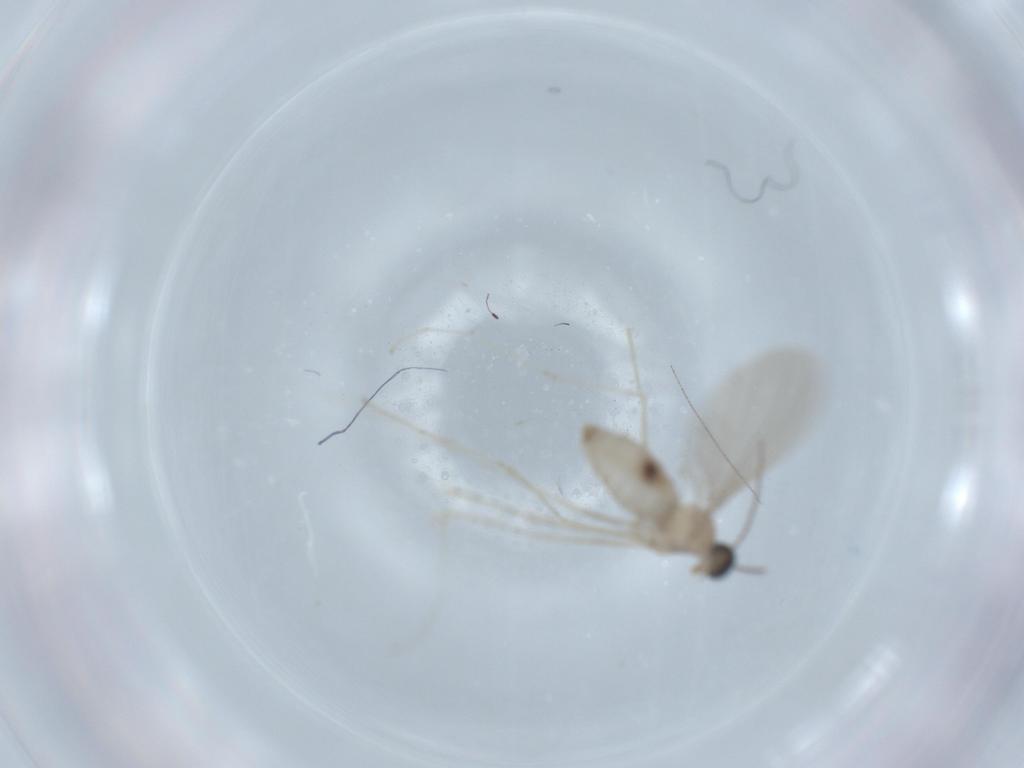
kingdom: Animalia
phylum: Arthropoda
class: Insecta
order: Diptera
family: Cecidomyiidae
